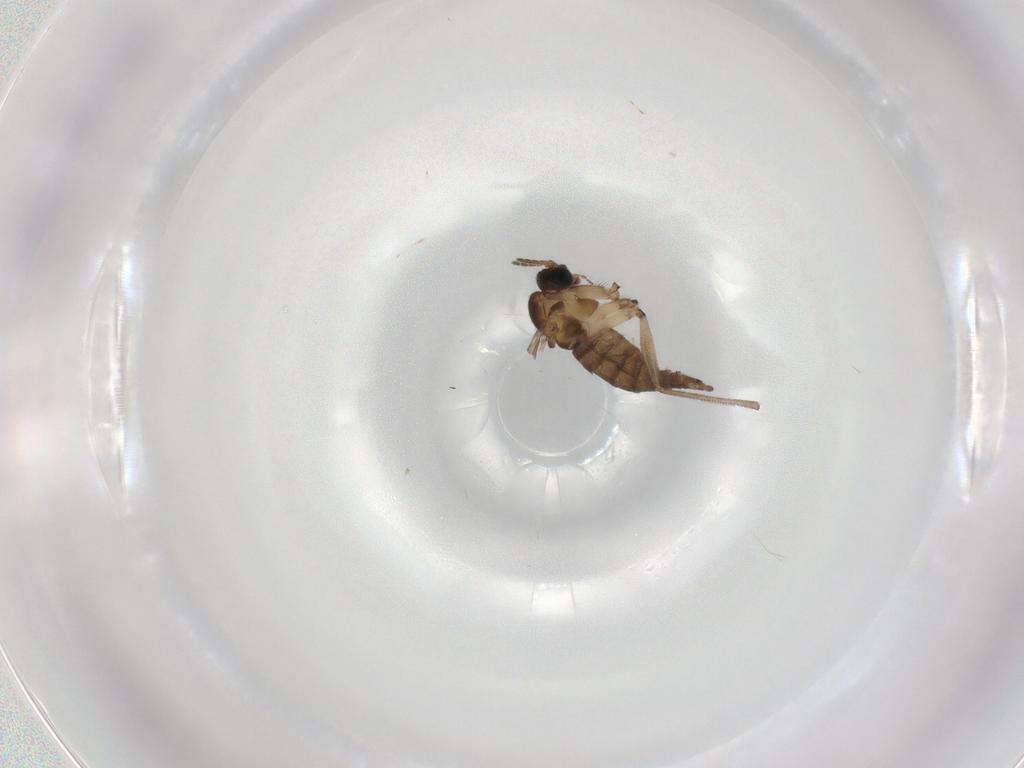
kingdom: Animalia
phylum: Arthropoda
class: Insecta
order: Diptera
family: Sciaridae
